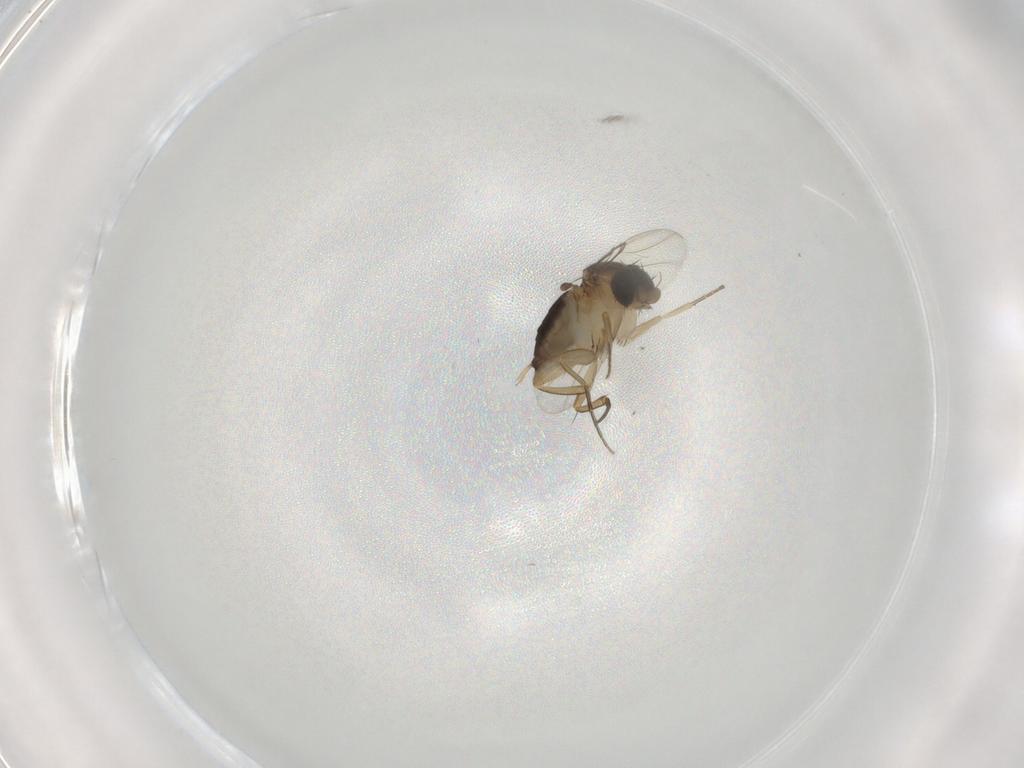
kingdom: Animalia
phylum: Arthropoda
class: Insecta
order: Diptera
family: Phoridae
